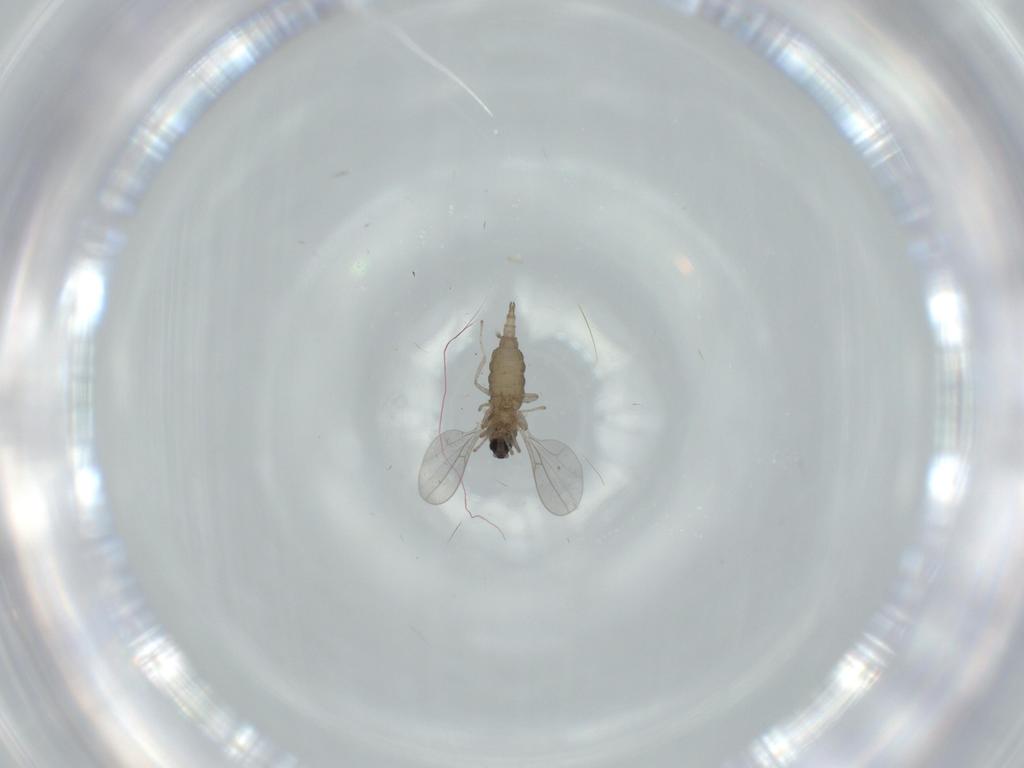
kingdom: Animalia
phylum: Arthropoda
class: Insecta
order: Diptera
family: Cecidomyiidae
